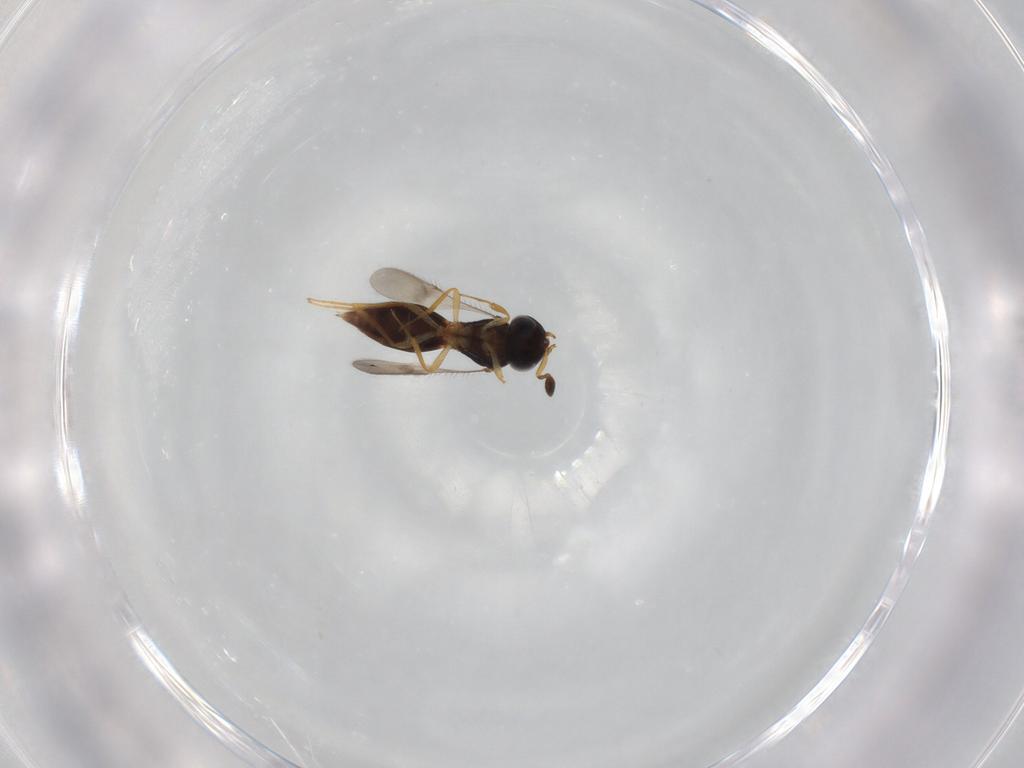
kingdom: Animalia
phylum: Arthropoda
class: Insecta
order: Hymenoptera
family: Scelionidae
